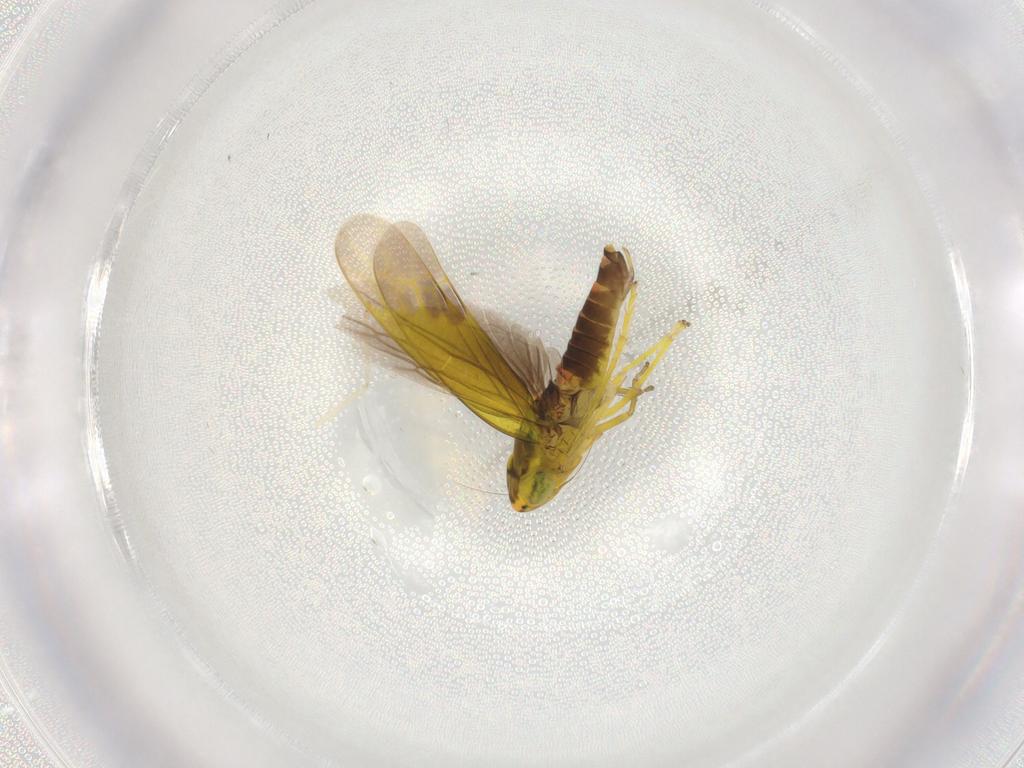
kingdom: Animalia
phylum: Arthropoda
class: Insecta
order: Hemiptera
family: Cicadellidae
